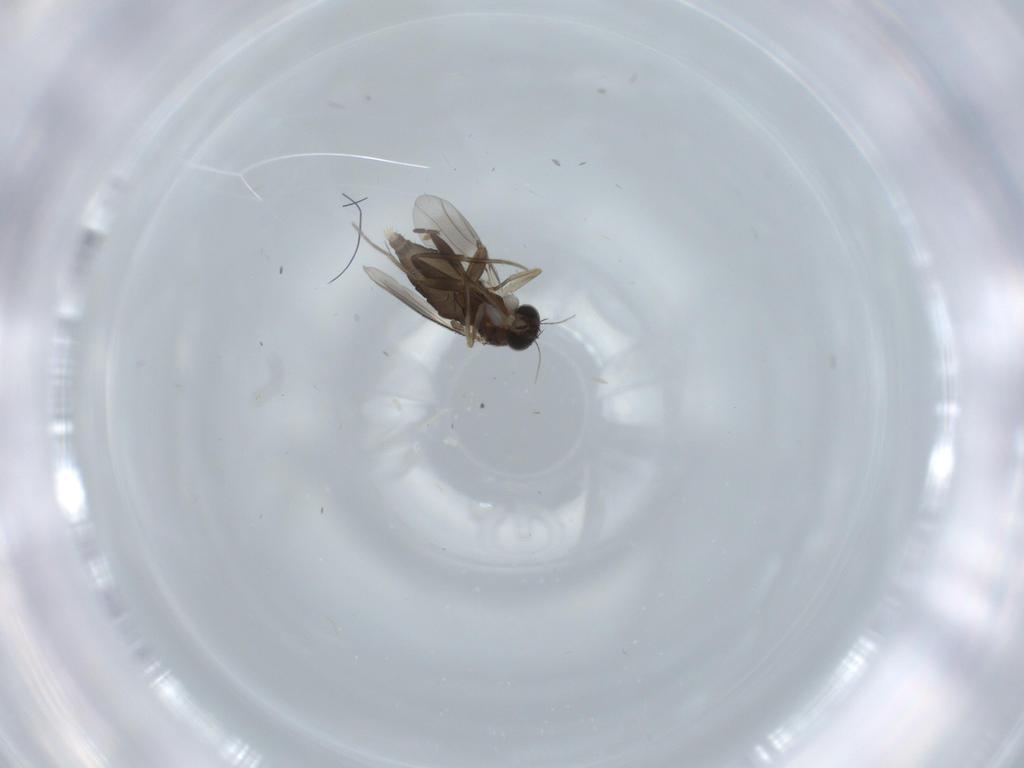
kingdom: Animalia
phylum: Arthropoda
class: Insecta
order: Diptera
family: Phoridae
